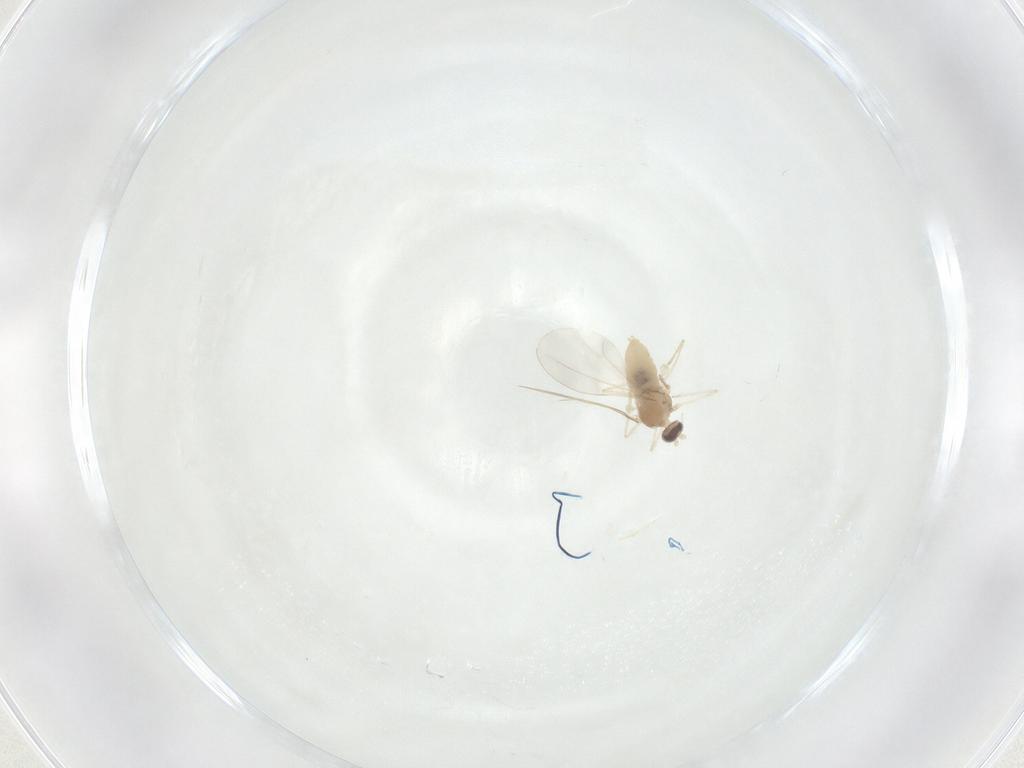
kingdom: Animalia
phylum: Arthropoda
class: Insecta
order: Diptera
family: Cecidomyiidae
